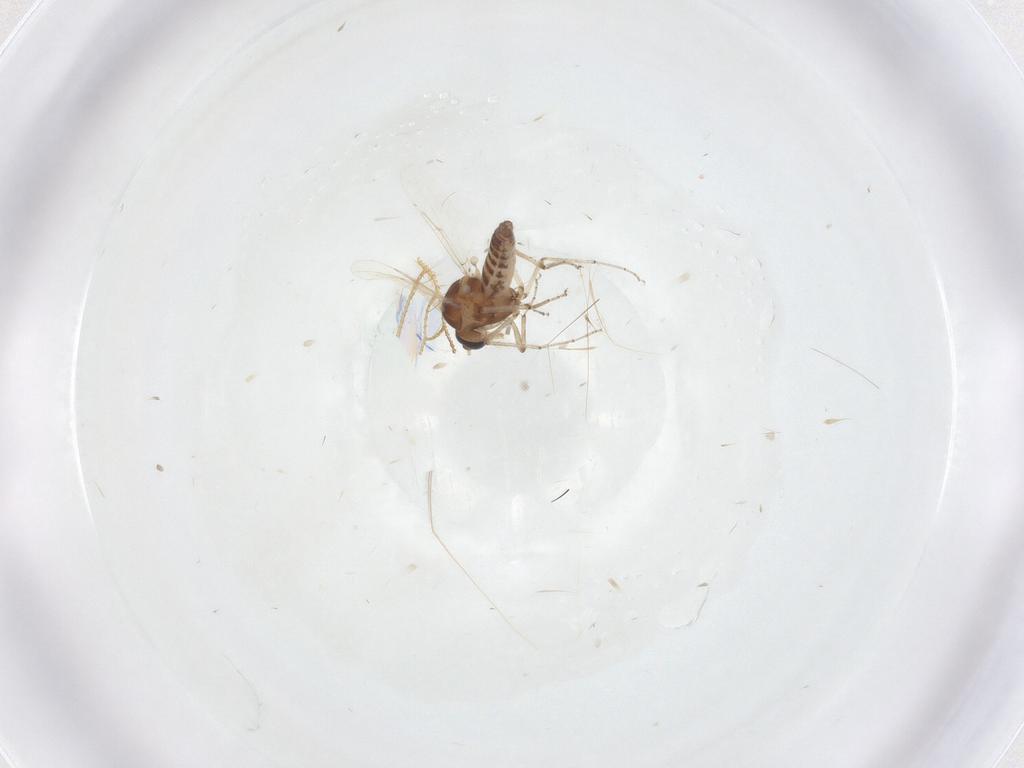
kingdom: Animalia
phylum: Arthropoda
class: Insecta
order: Diptera
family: Ceratopogonidae
